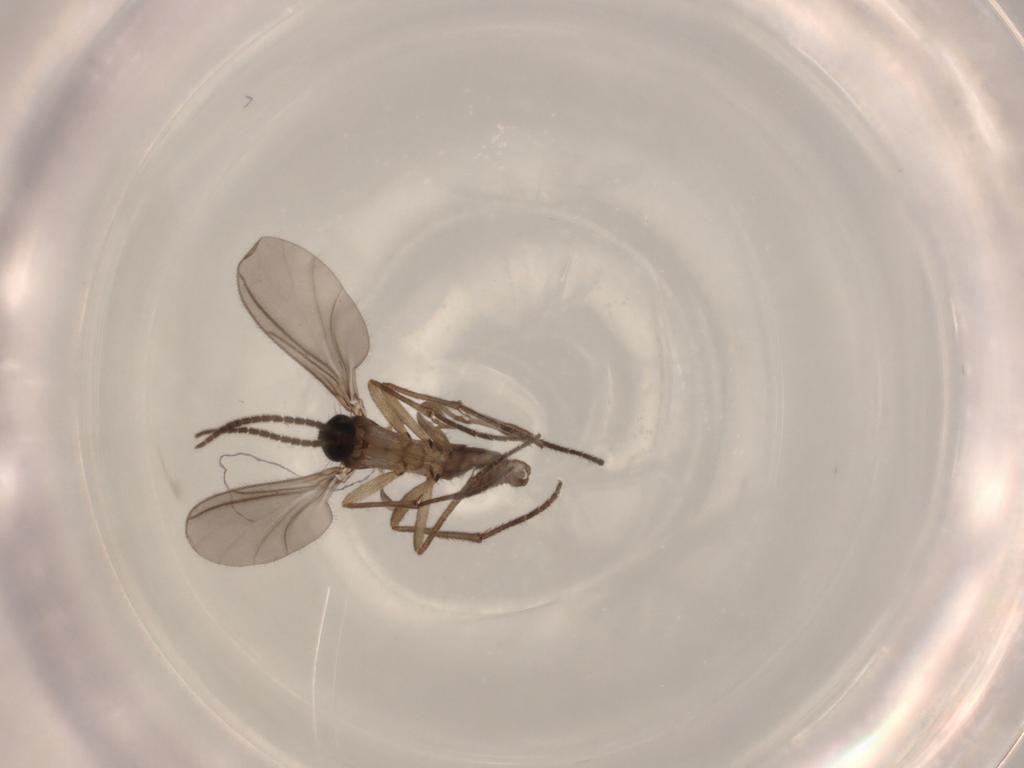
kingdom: Animalia
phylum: Arthropoda
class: Insecta
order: Diptera
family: Sciaridae
